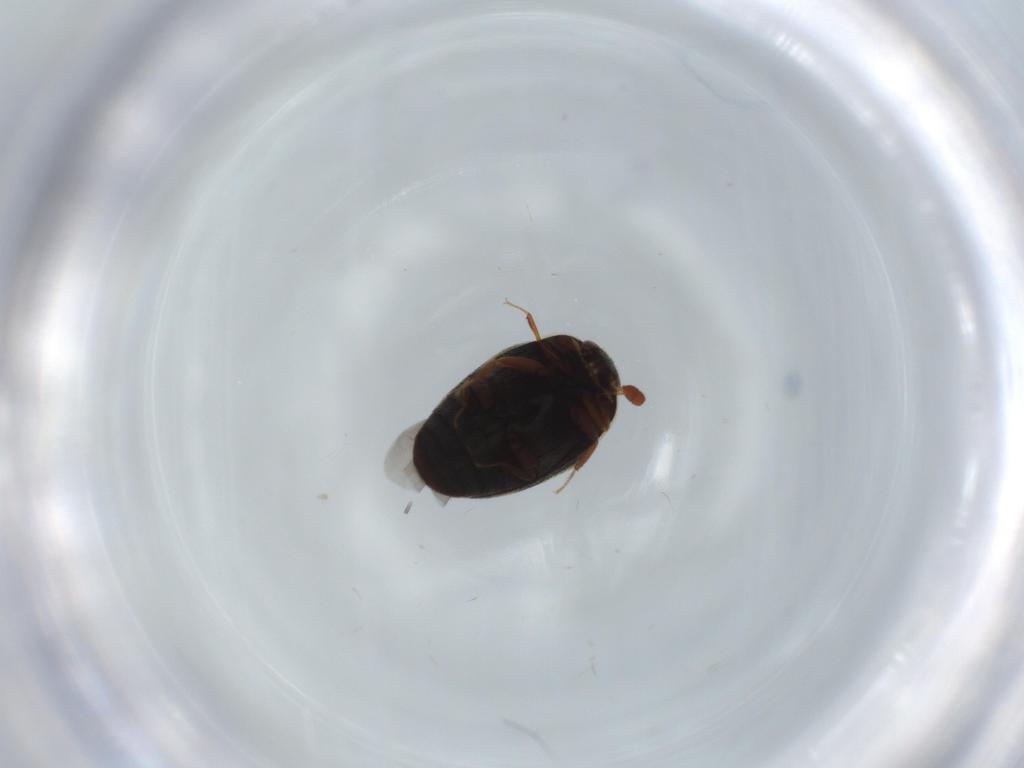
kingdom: Animalia
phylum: Arthropoda
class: Insecta
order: Coleoptera
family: Dermestidae
